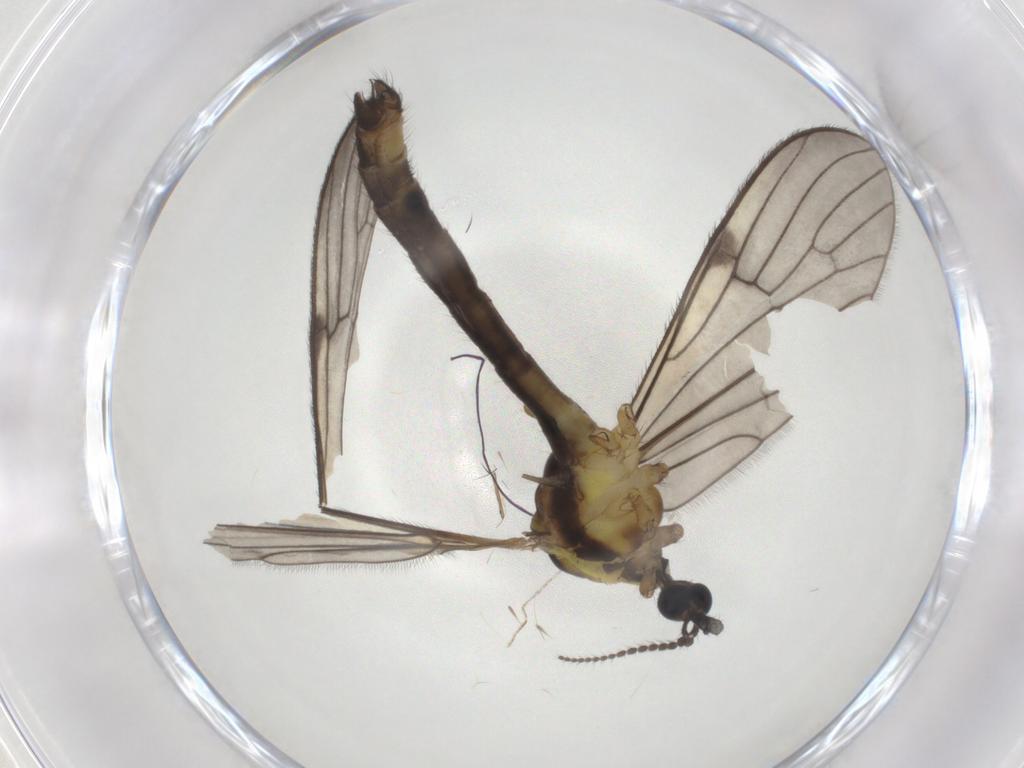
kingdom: Animalia
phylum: Arthropoda
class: Insecta
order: Diptera
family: Limoniidae
